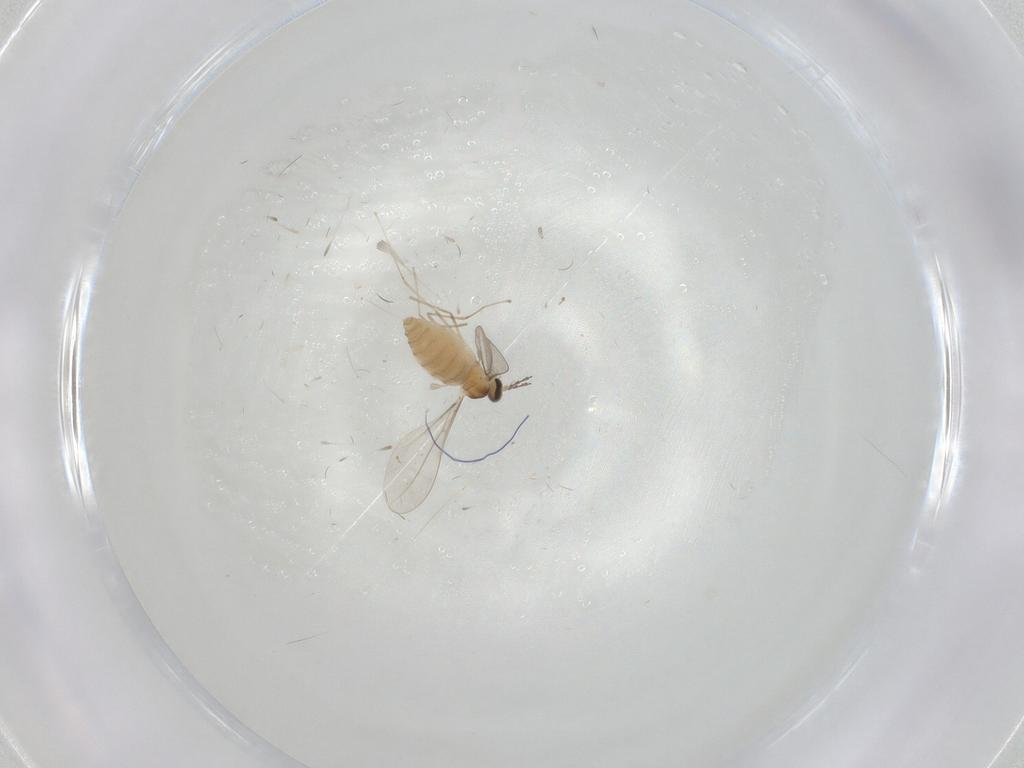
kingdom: Animalia
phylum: Arthropoda
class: Insecta
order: Diptera
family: Cecidomyiidae
